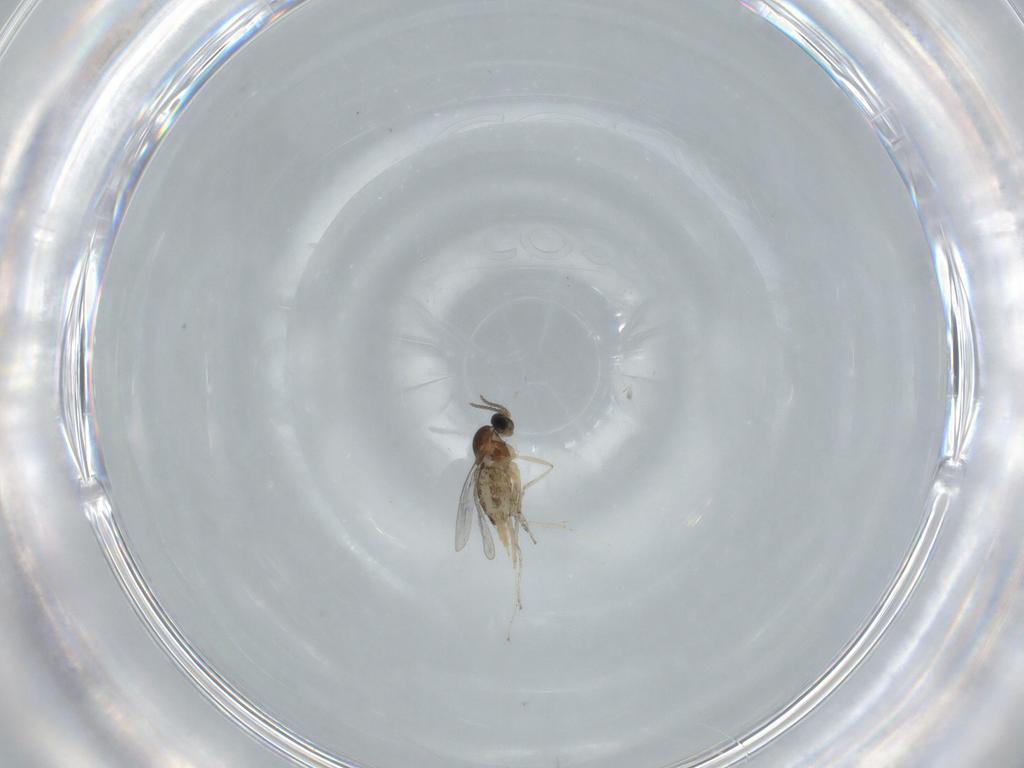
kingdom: Animalia
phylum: Arthropoda
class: Insecta
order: Diptera
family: Cecidomyiidae
